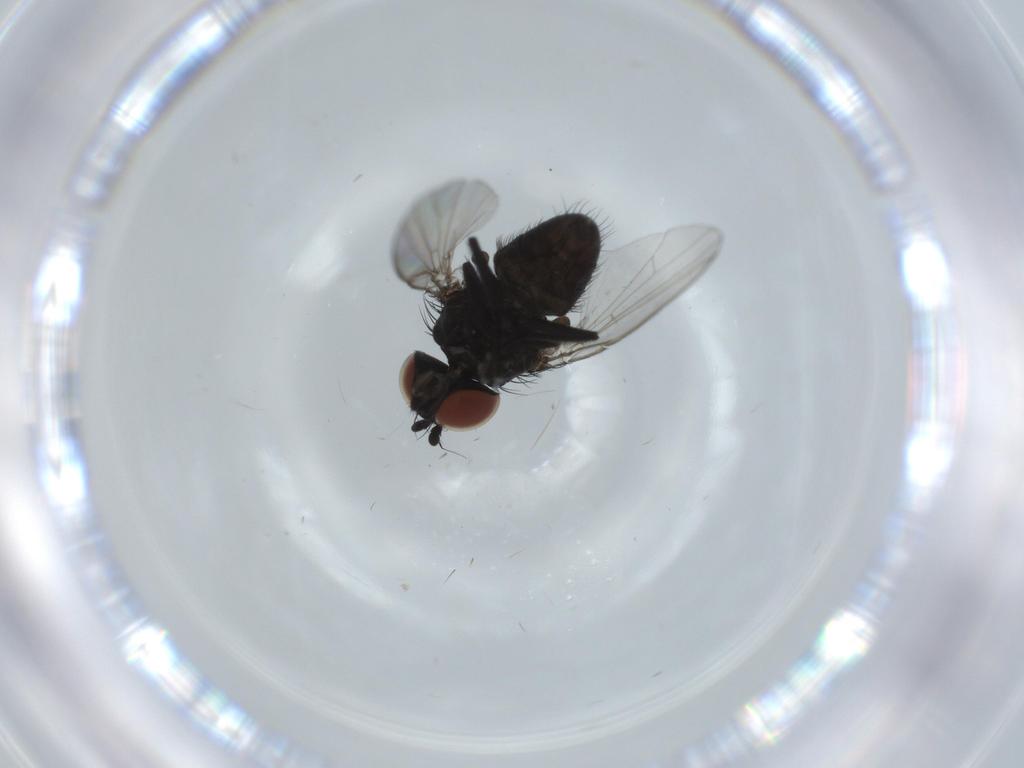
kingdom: Animalia
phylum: Arthropoda
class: Insecta
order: Diptera
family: Milichiidae
